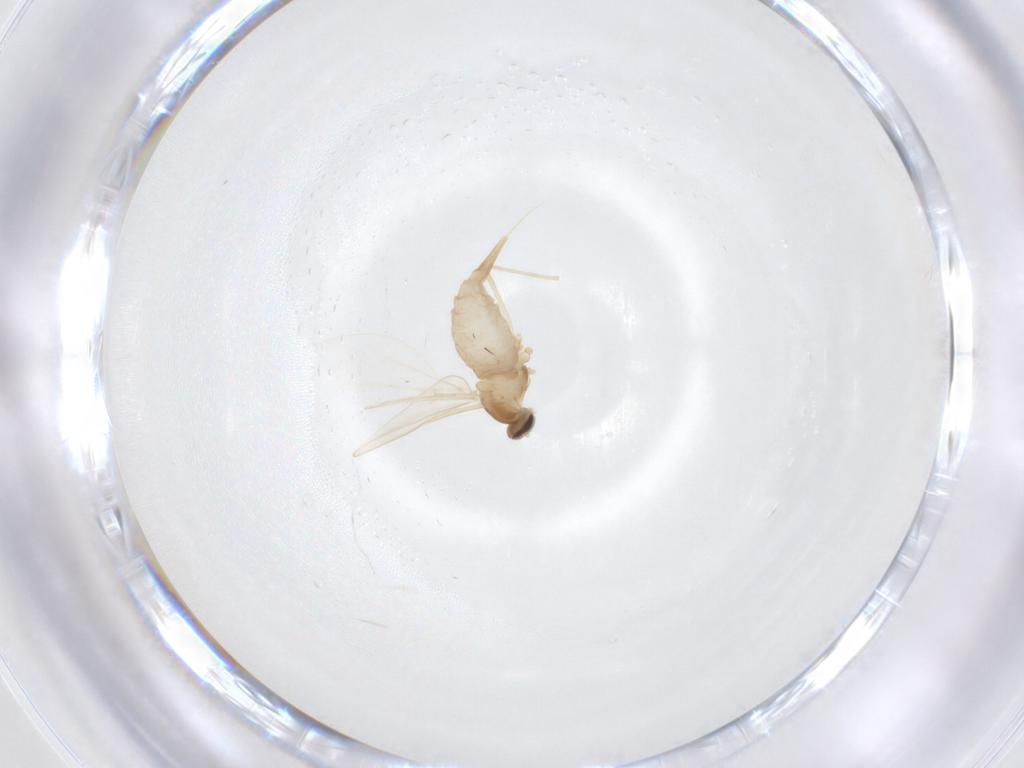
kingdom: Animalia
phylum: Arthropoda
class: Insecta
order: Diptera
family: Cecidomyiidae
